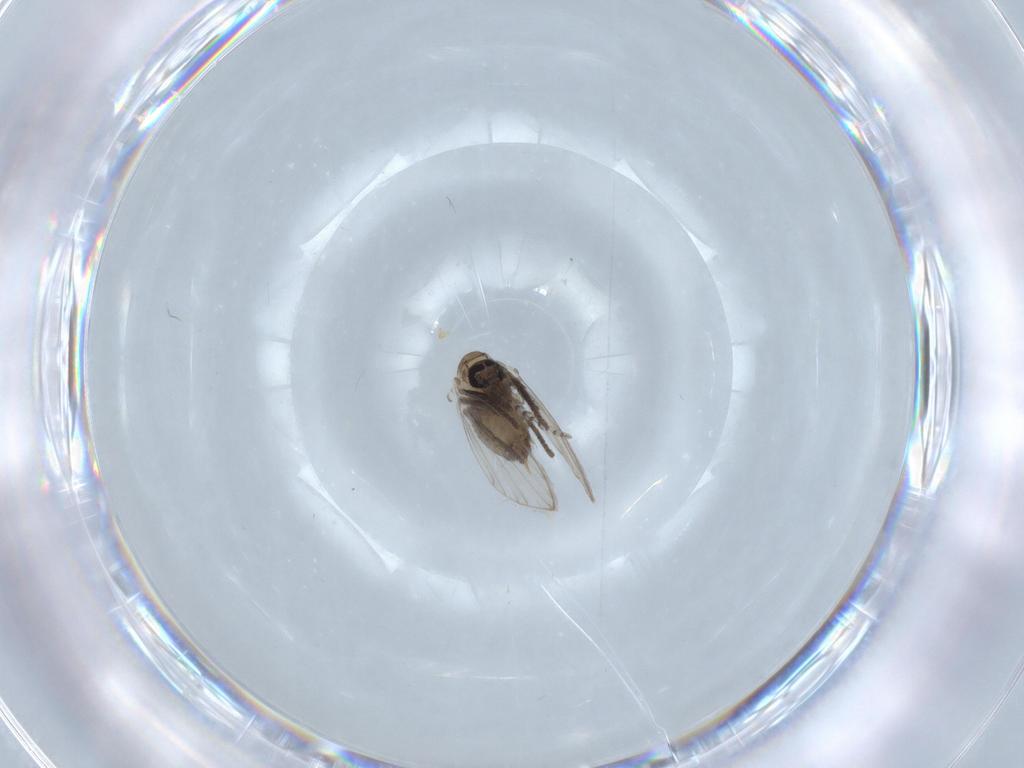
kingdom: Animalia
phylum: Arthropoda
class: Insecta
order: Diptera
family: Psychodidae
